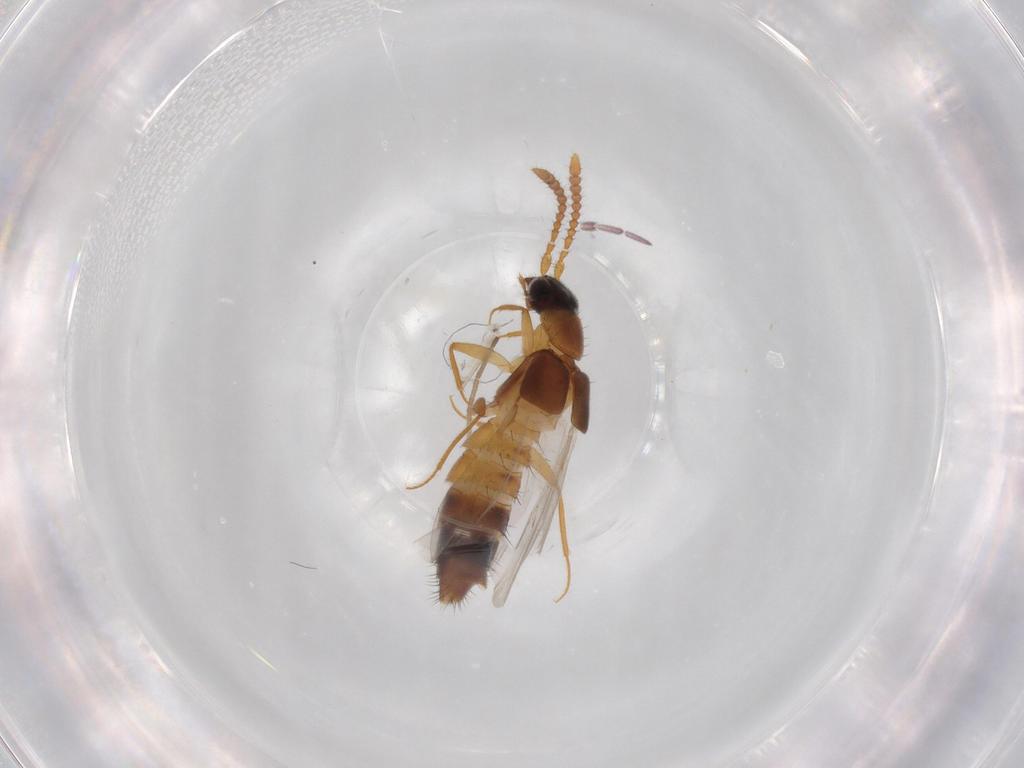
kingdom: Animalia
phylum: Arthropoda
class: Insecta
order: Coleoptera
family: Staphylinidae
